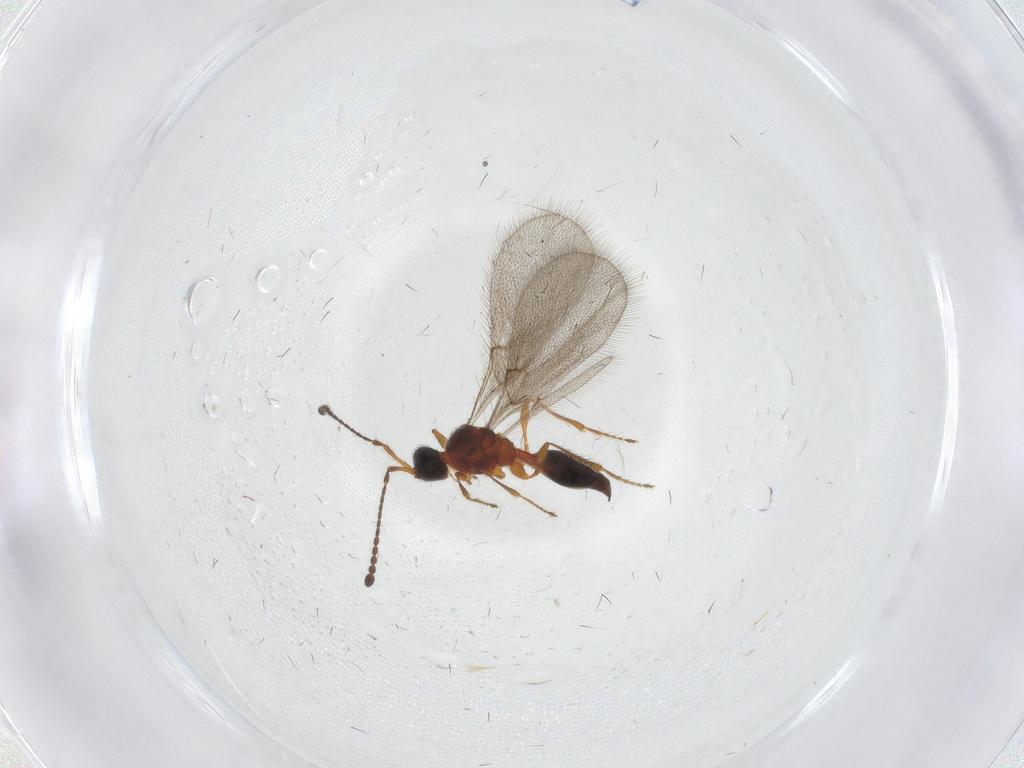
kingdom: Animalia
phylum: Arthropoda
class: Insecta
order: Hymenoptera
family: Diapriidae
